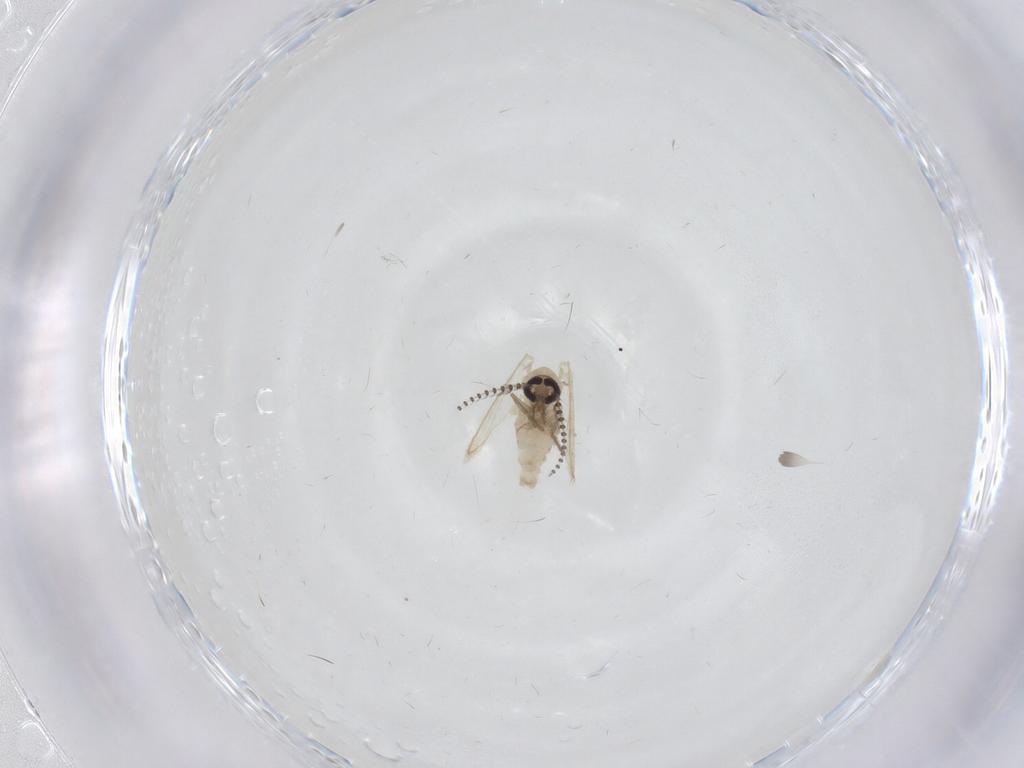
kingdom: Animalia
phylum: Arthropoda
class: Insecta
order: Diptera
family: Psychodidae
